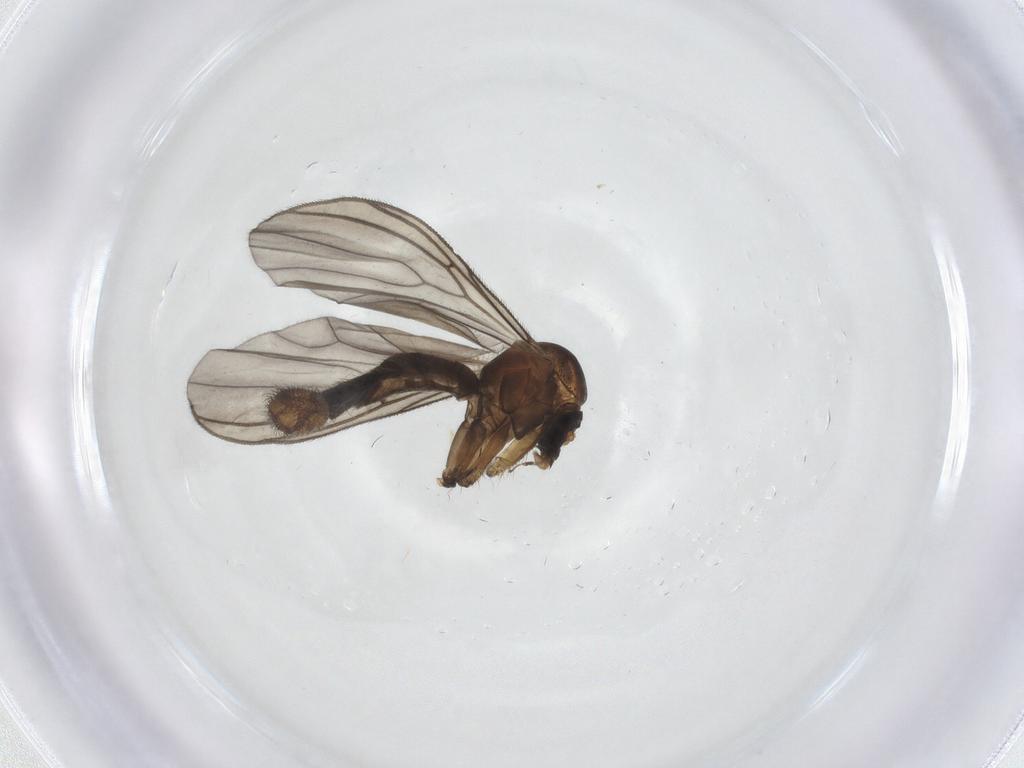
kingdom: Animalia
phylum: Arthropoda
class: Insecta
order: Diptera
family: Mycetophilidae
